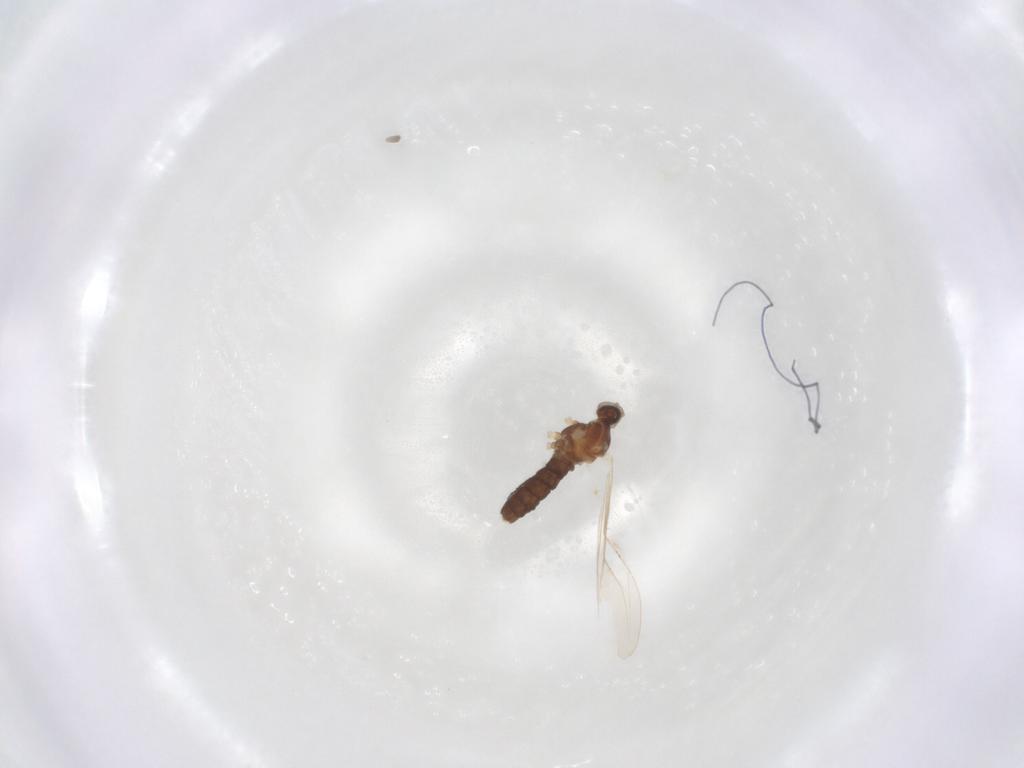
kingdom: Animalia
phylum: Arthropoda
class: Insecta
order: Diptera
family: Cecidomyiidae
